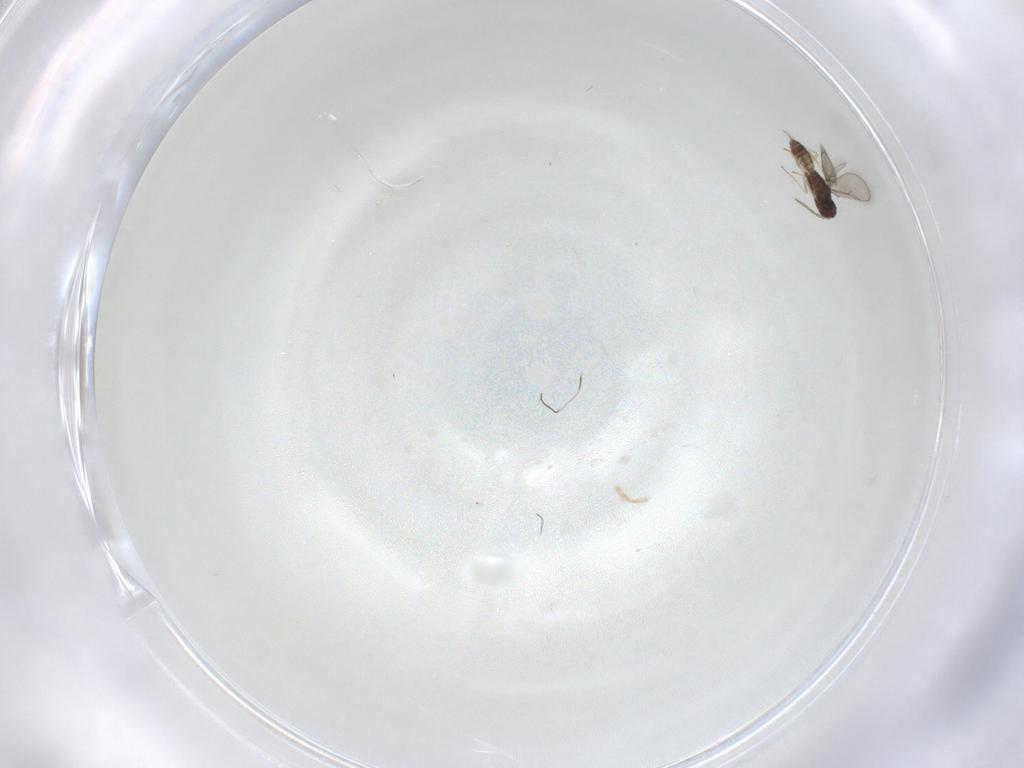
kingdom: Animalia
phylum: Arthropoda
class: Insecta
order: Hymenoptera
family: Eulophidae
